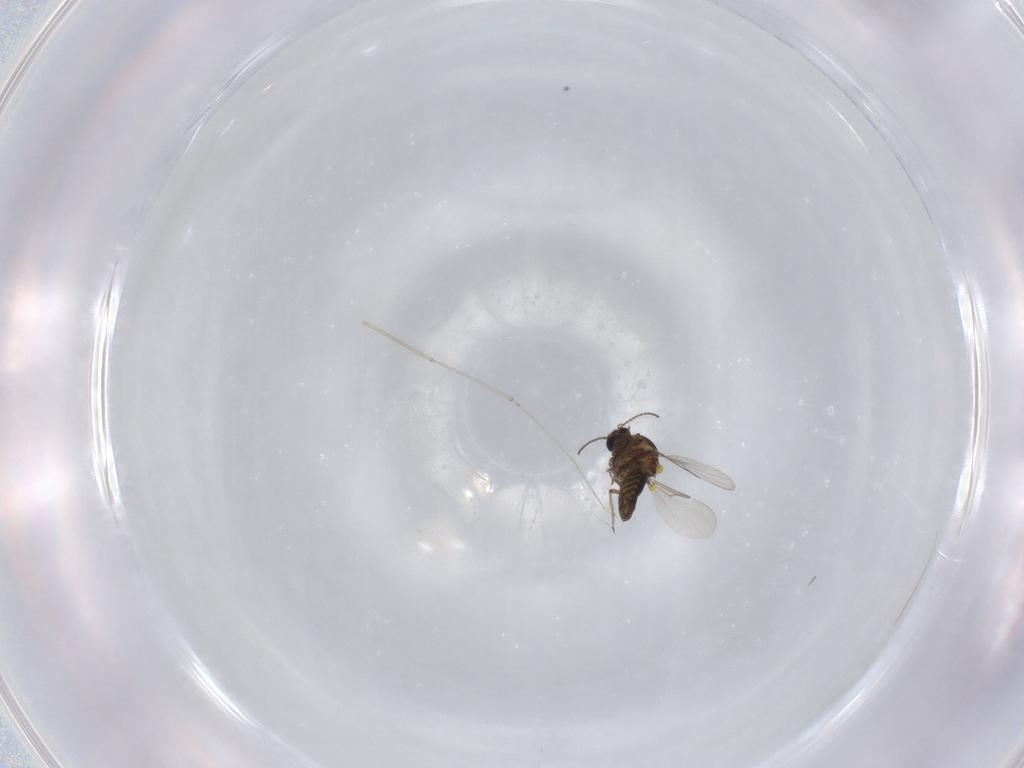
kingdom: Animalia
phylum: Arthropoda
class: Insecta
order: Diptera
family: Ceratopogonidae
